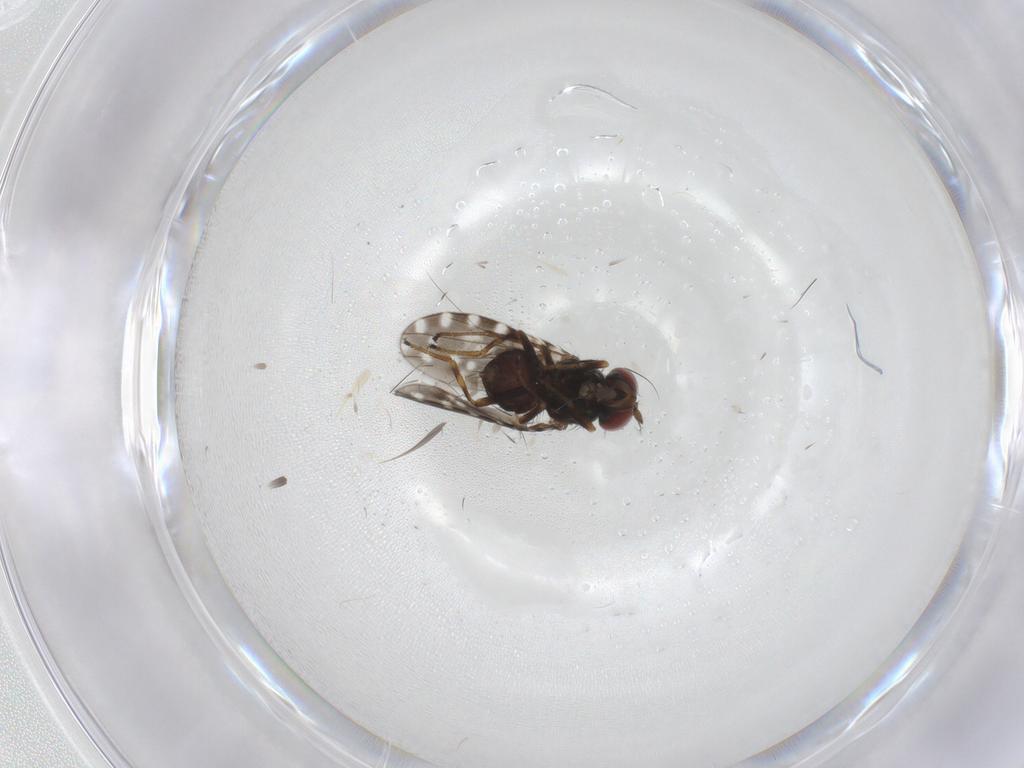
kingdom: Animalia
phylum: Arthropoda
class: Insecta
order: Diptera
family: Ephydridae
